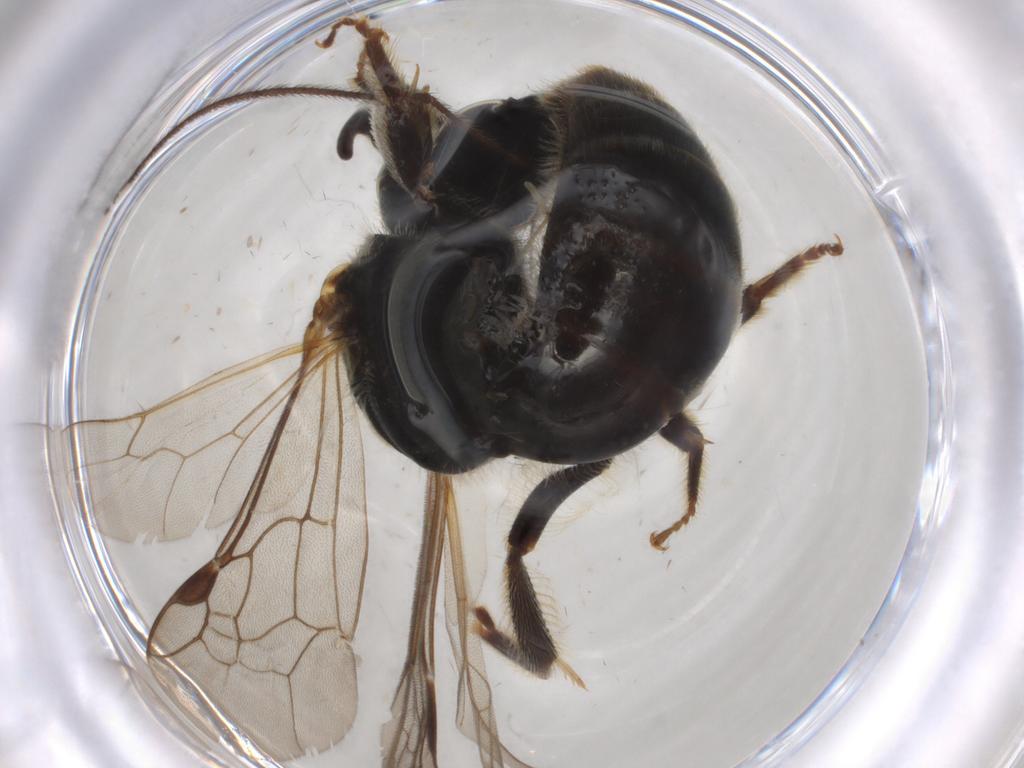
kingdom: Animalia
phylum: Arthropoda
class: Insecta
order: Hymenoptera
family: Halictidae
